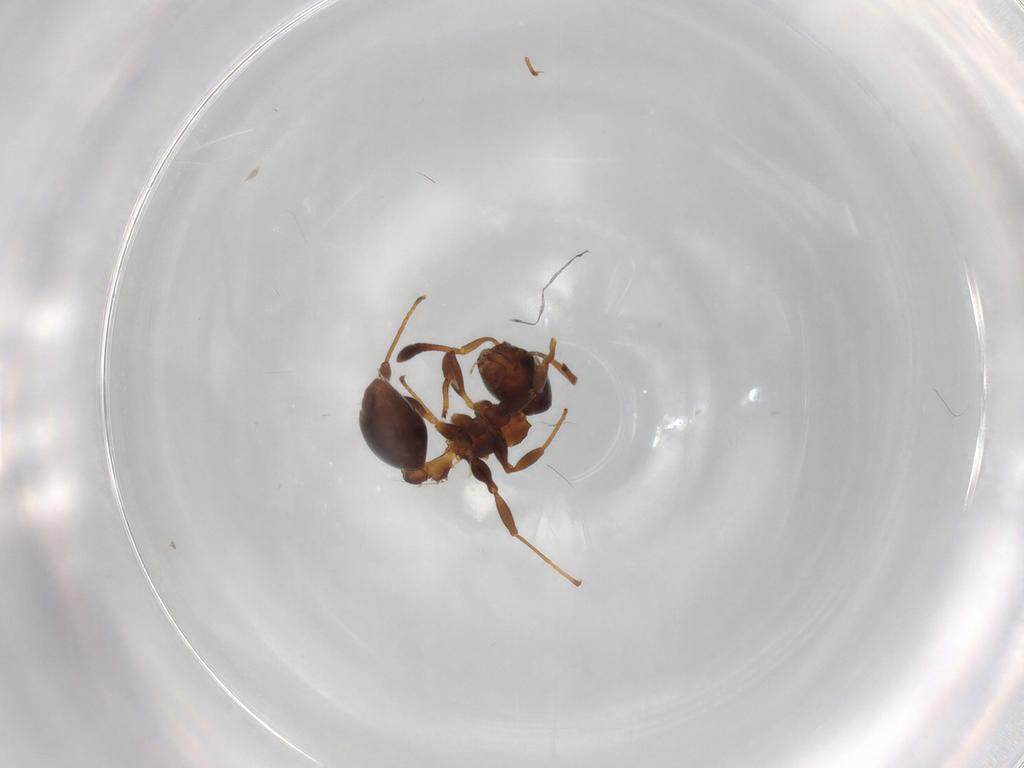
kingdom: Animalia
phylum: Arthropoda
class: Insecta
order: Hymenoptera
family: Formicidae
